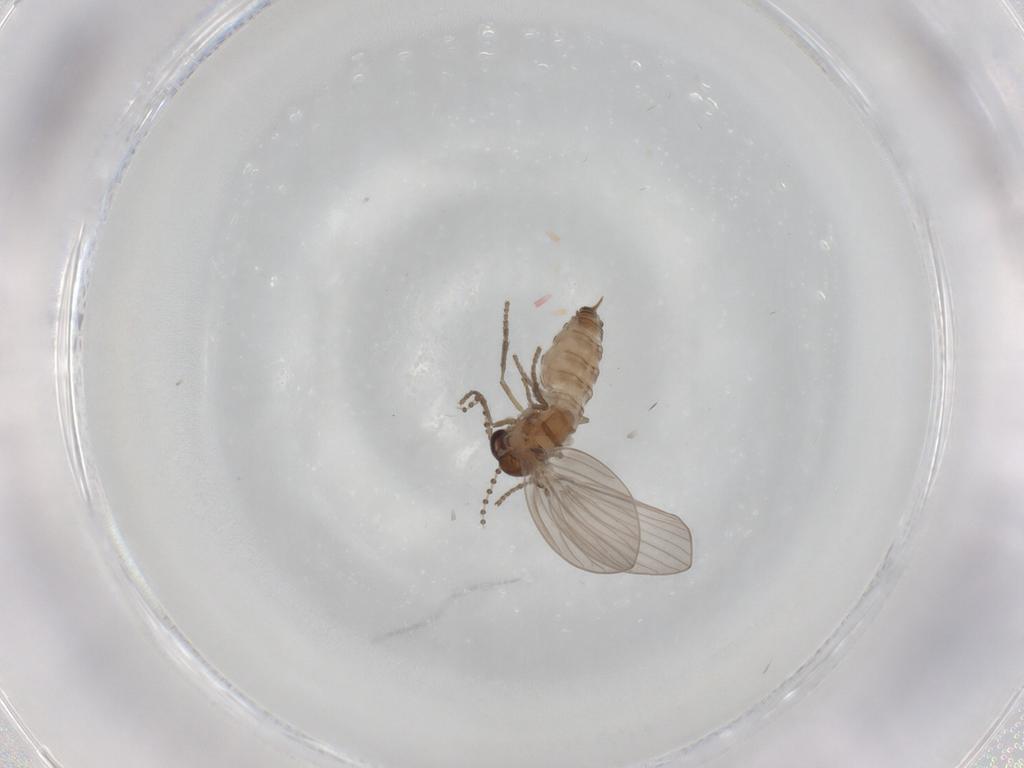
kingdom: Animalia
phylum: Arthropoda
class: Insecta
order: Diptera
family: Psychodidae
